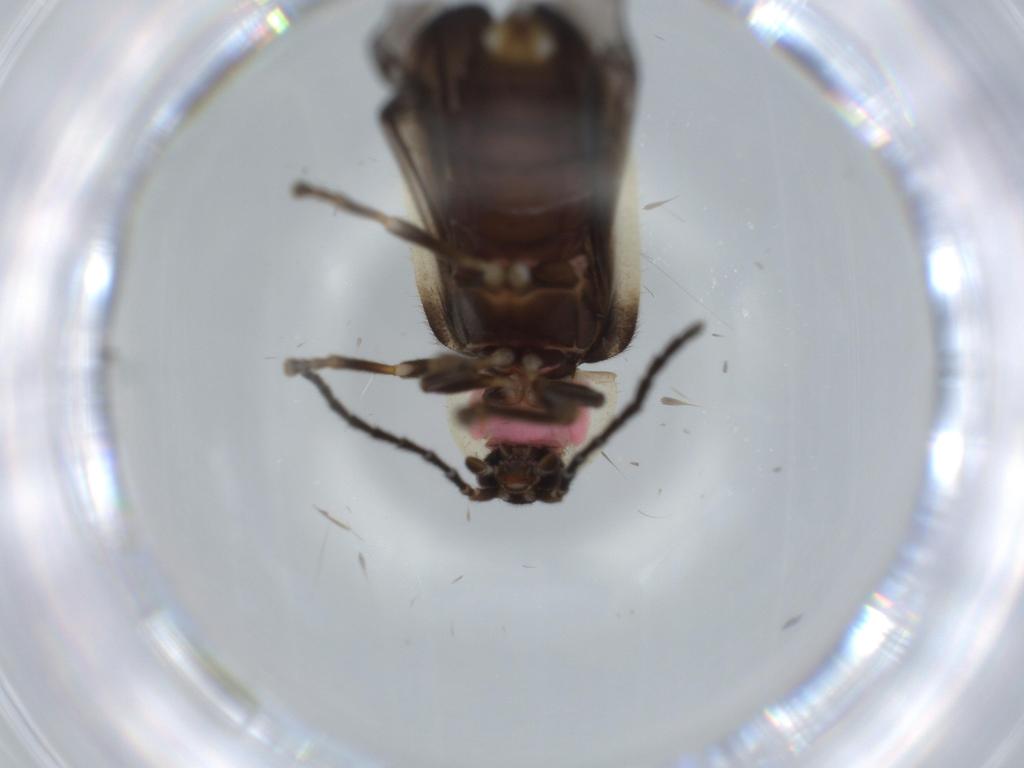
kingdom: Animalia
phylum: Arthropoda
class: Insecta
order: Coleoptera
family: Lampyridae
